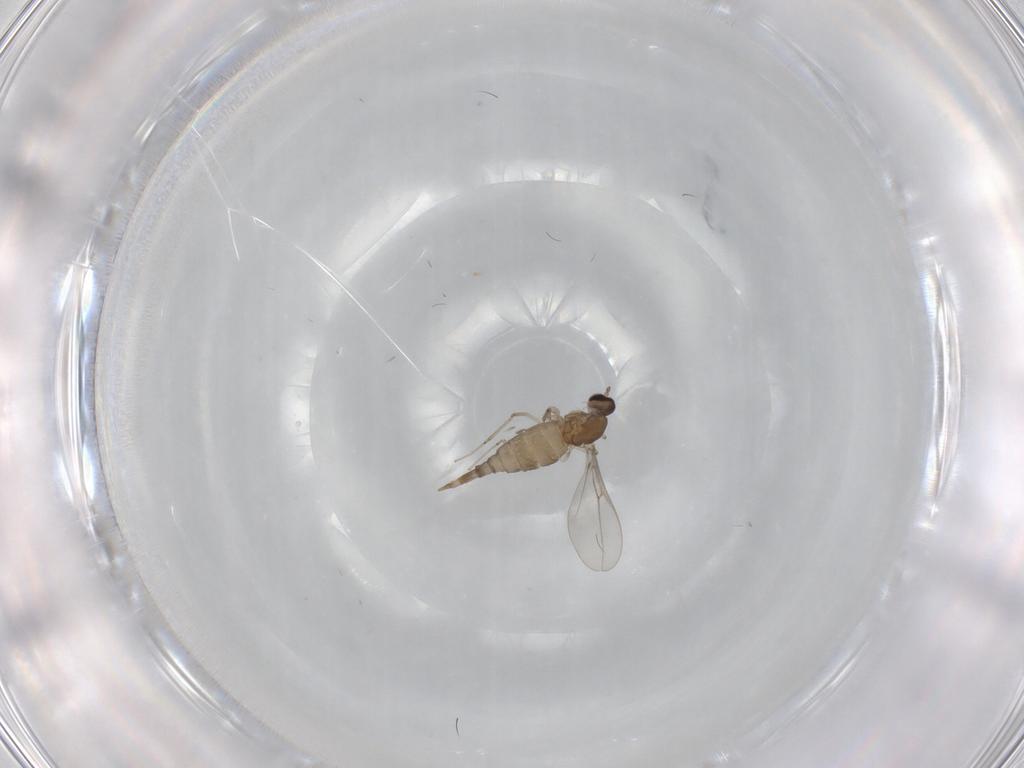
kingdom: Animalia
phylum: Arthropoda
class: Insecta
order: Diptera
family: Cecidomyiidae
